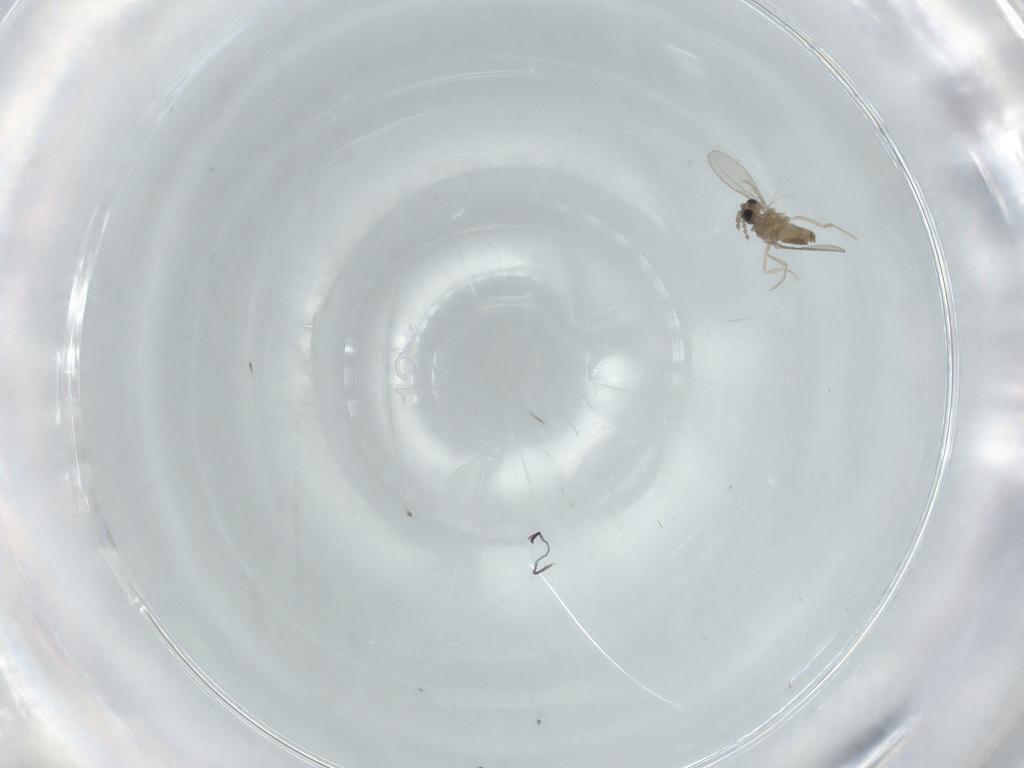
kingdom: Animalia
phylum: Arthropoda
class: Insecta
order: Diptera
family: Cecidomyiidae
